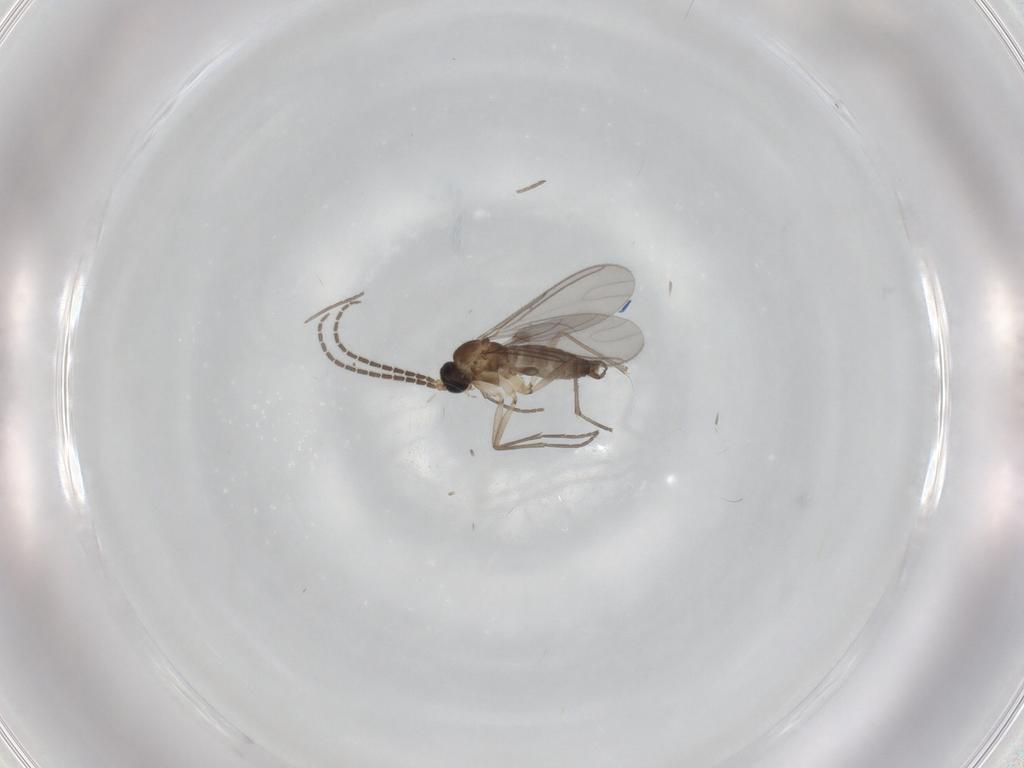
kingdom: Animalia
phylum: Arthropoda
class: Insecta
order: Diptera
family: Sciaridae
